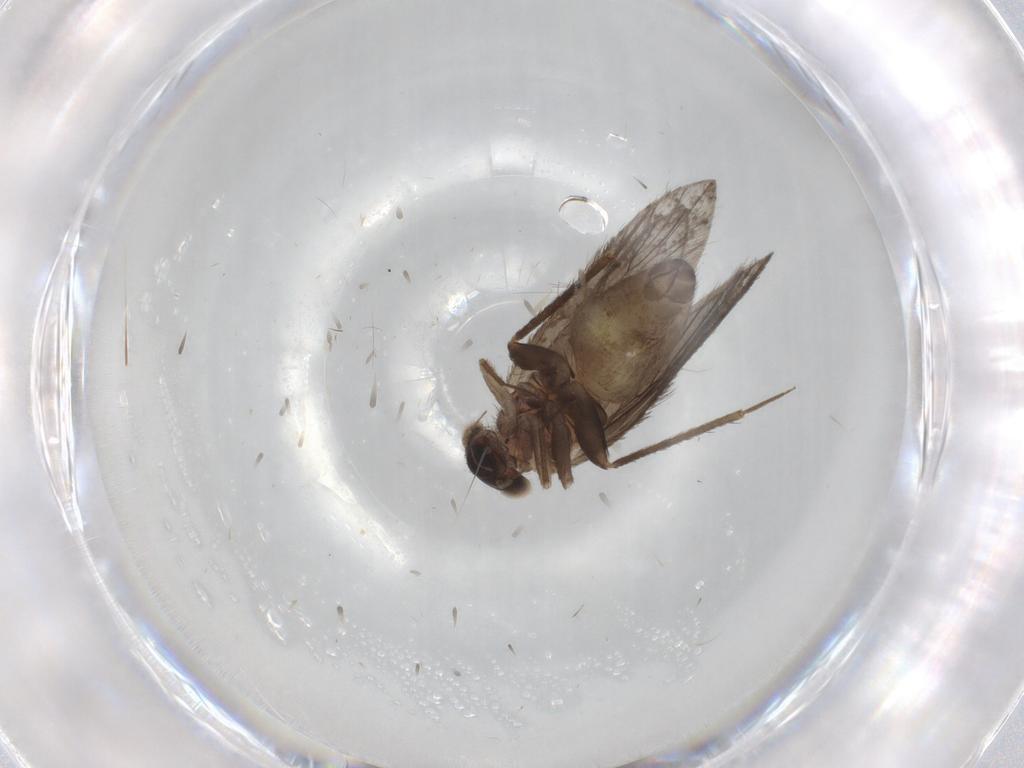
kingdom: Animalia
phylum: Arthropoda
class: Insecta
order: Psocodea
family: Lepidopsocidae
